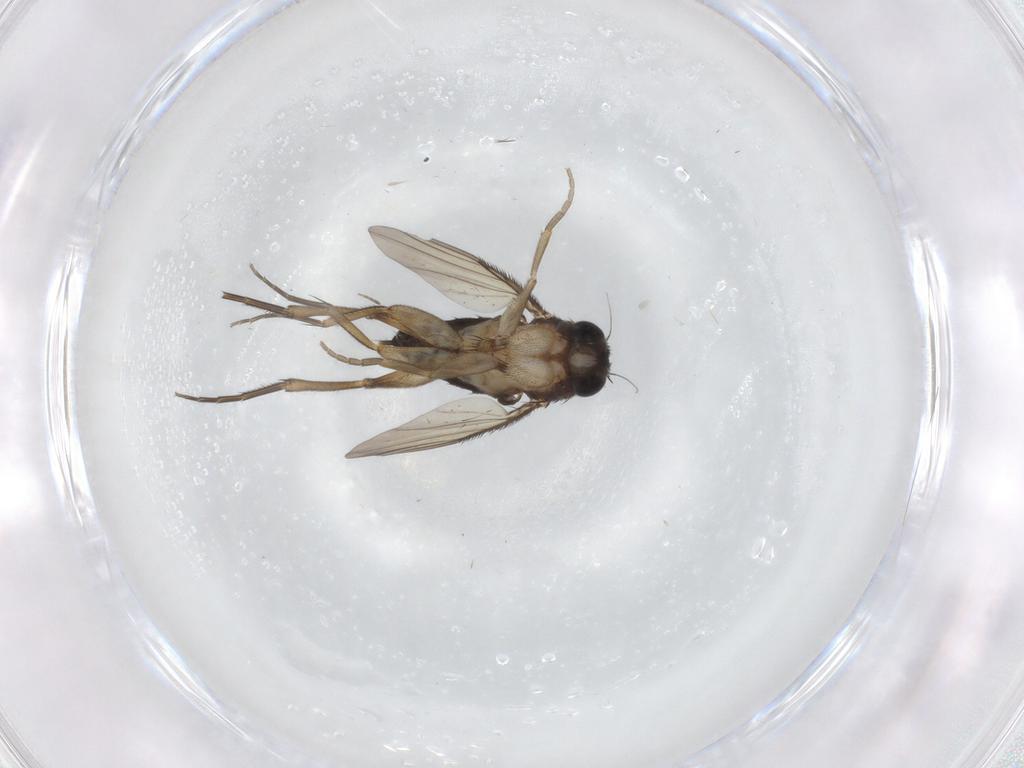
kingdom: Animalia
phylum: Arthropoda
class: Insecta
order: Diptera
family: Phoridae
